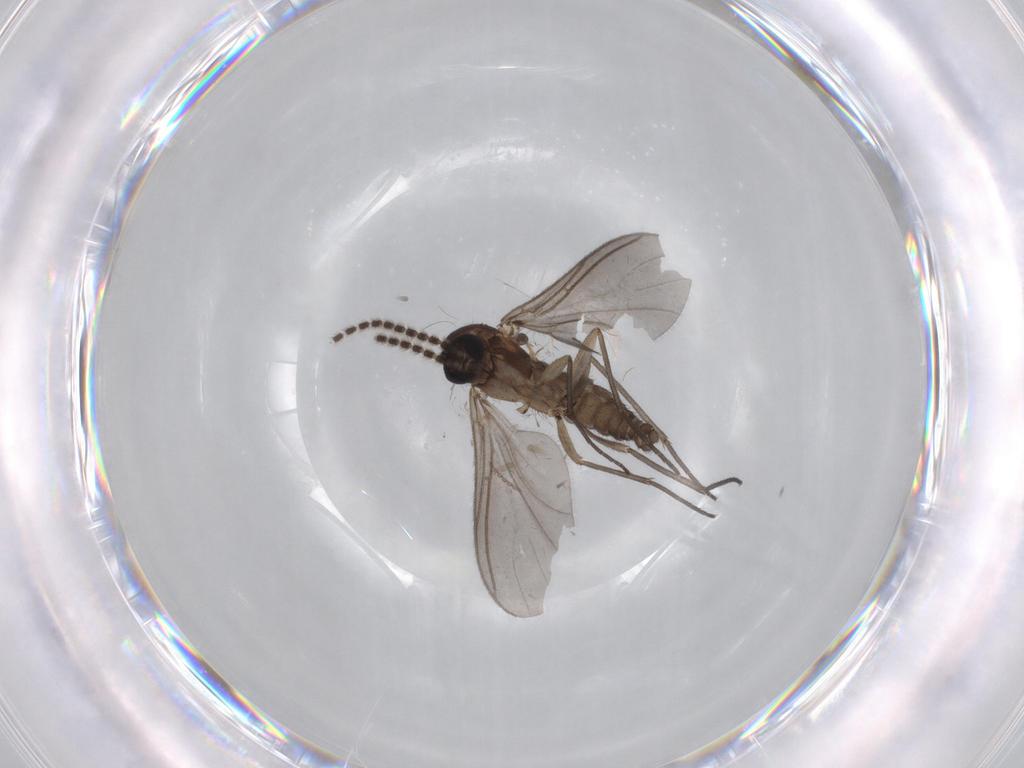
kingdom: Animalia
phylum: Arthropoda
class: Insecta
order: Diptera
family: Sciaridae
